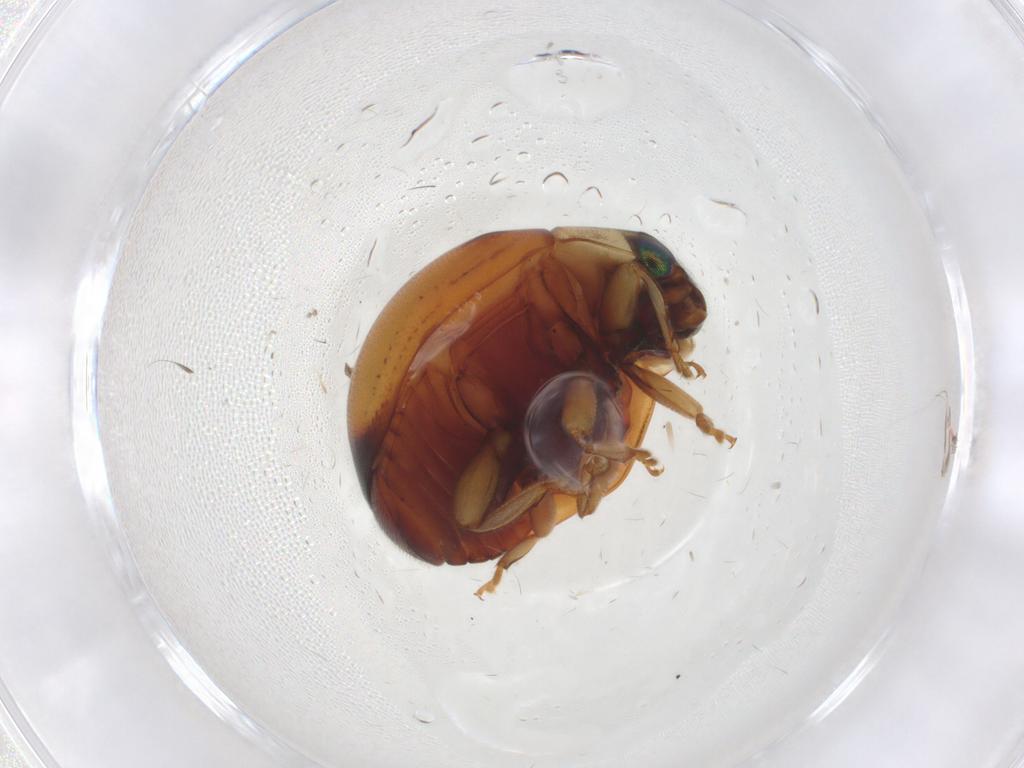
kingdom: Animalia
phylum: Arthropoda
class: Insecta
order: Coleoptera
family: Coccinellidae
